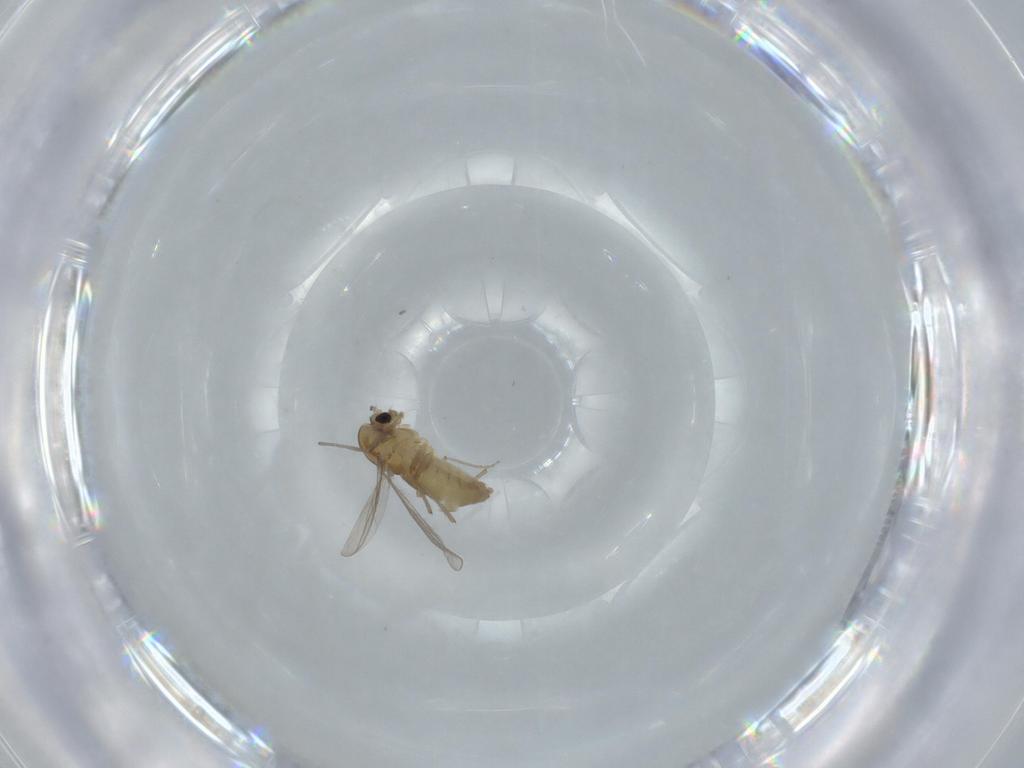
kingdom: Animalia
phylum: Arthropoda
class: Insecta
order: Diptera
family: Chironomidae
